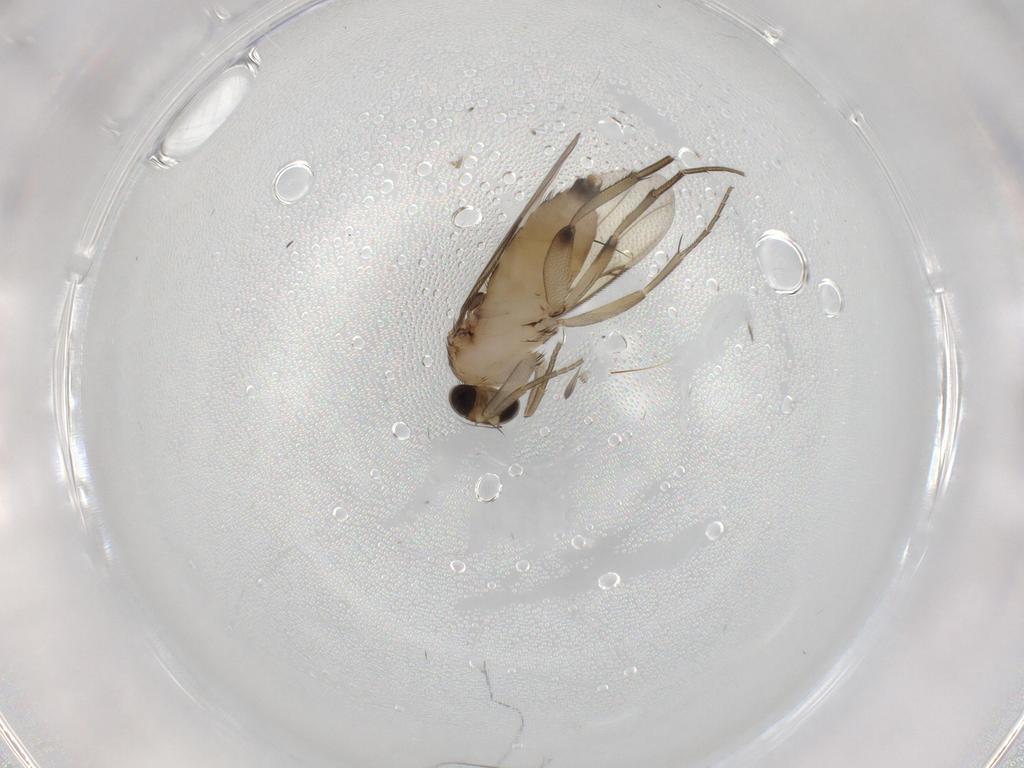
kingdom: Animalia
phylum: Arthropoda
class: Insecta
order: Diptera
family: Phoridae
